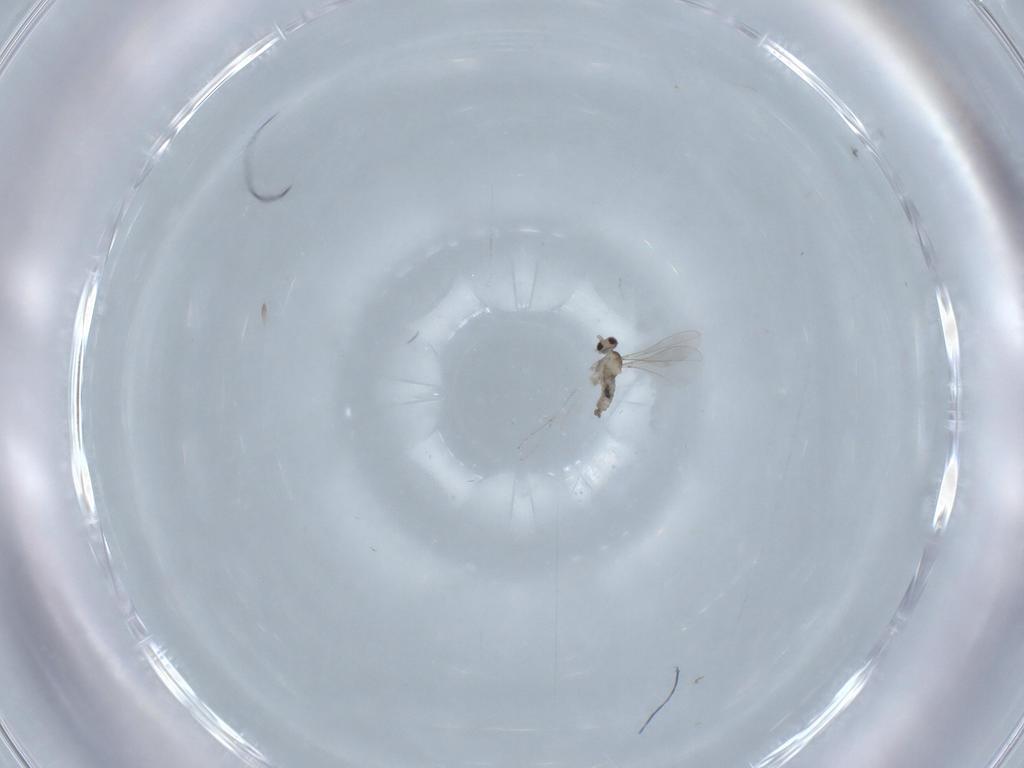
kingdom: Animalia
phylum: Arthropoda
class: Insecta
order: Diptera
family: Cecidomyiidae
